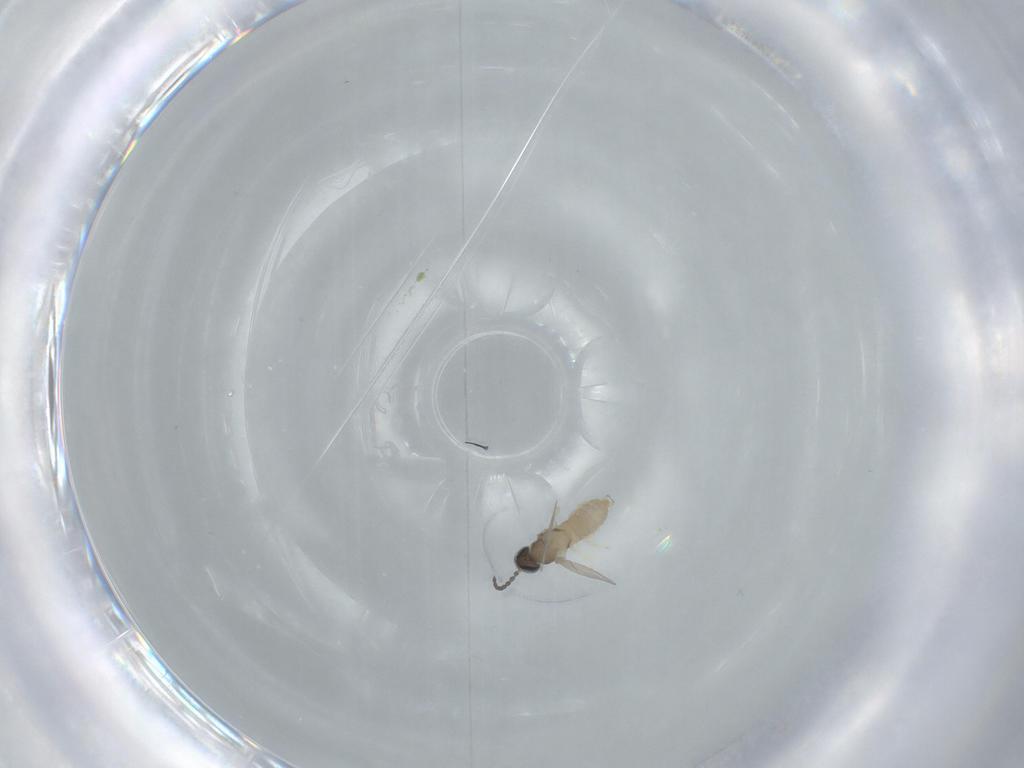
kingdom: Animalia
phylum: Arthropoda
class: Insecta
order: Diptera
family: Cecidomyiidae
